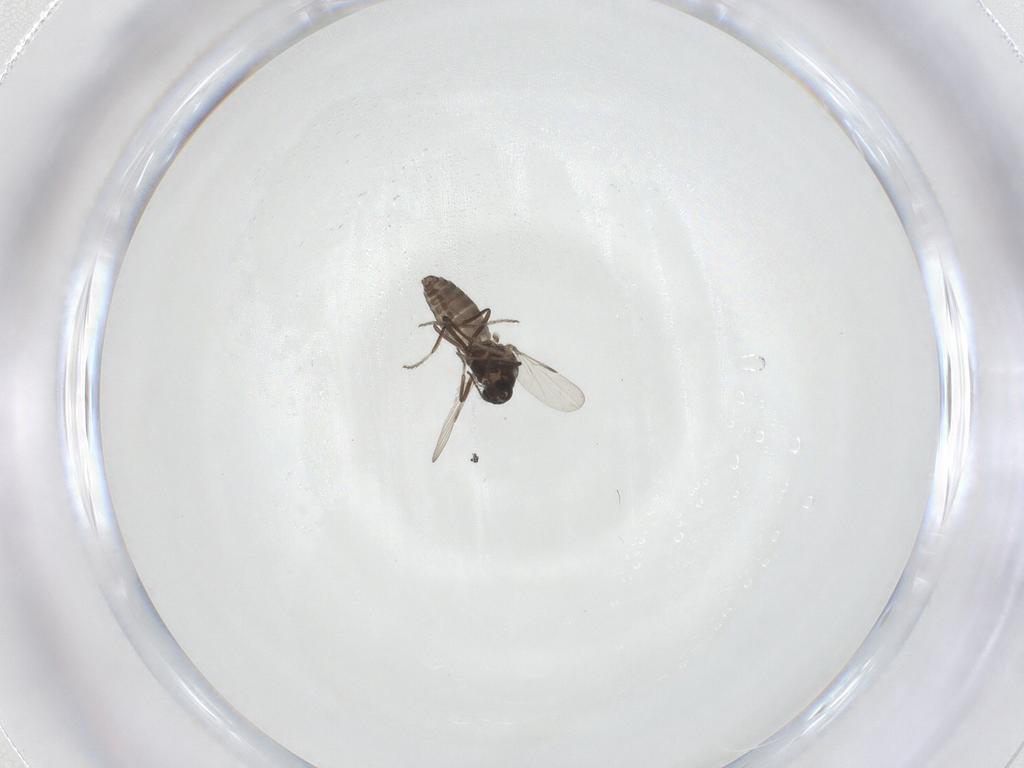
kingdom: Animalia
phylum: Arthropoda
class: Insecta
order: Diptera
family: Ceratopogonidae
